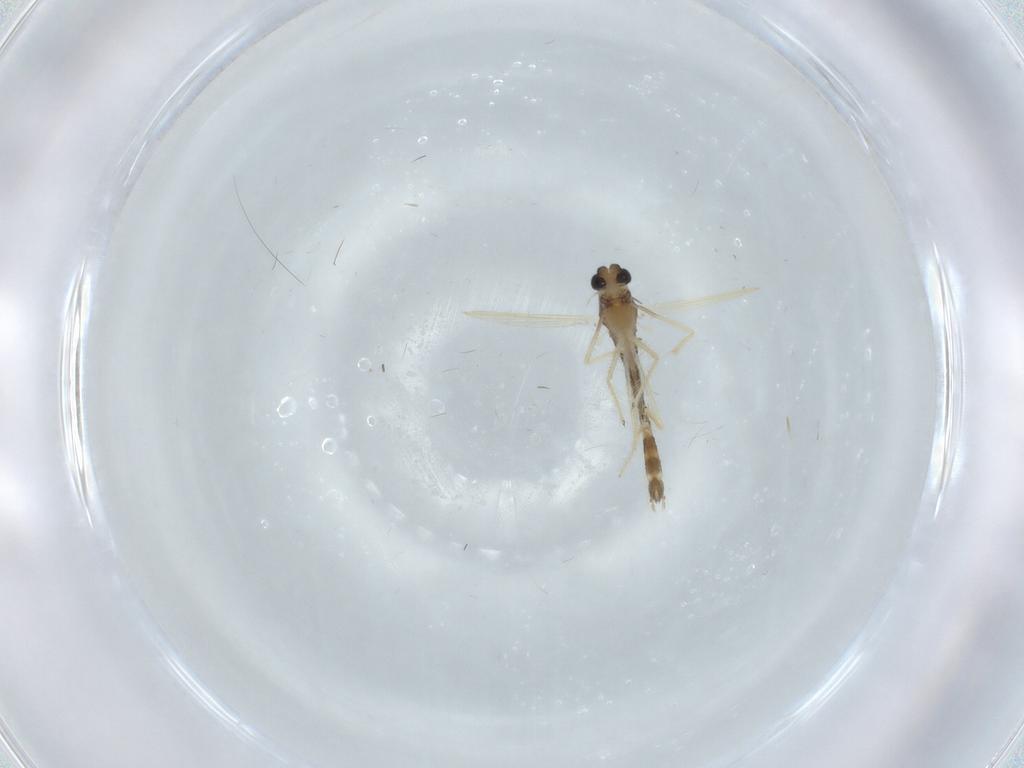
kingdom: Animalia
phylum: Arthropoda
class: Insecta
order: Diptera
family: Chironomidae
